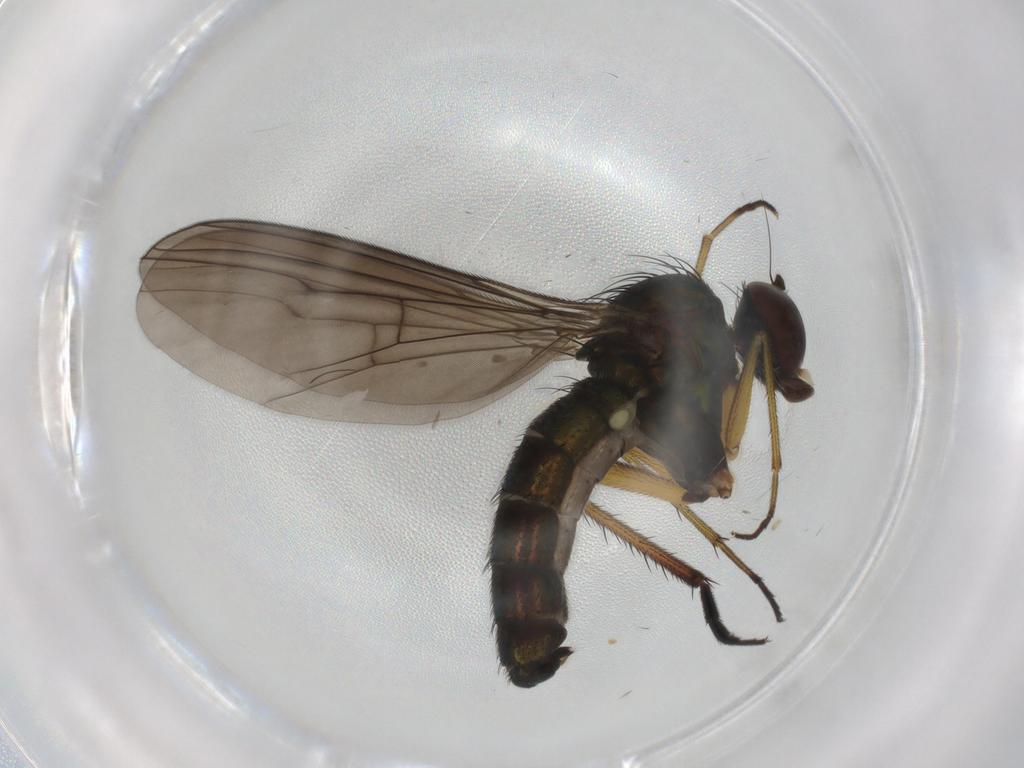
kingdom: Animalia
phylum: Arthropoda
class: Insecta
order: Diptera
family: Dolichopodidae
